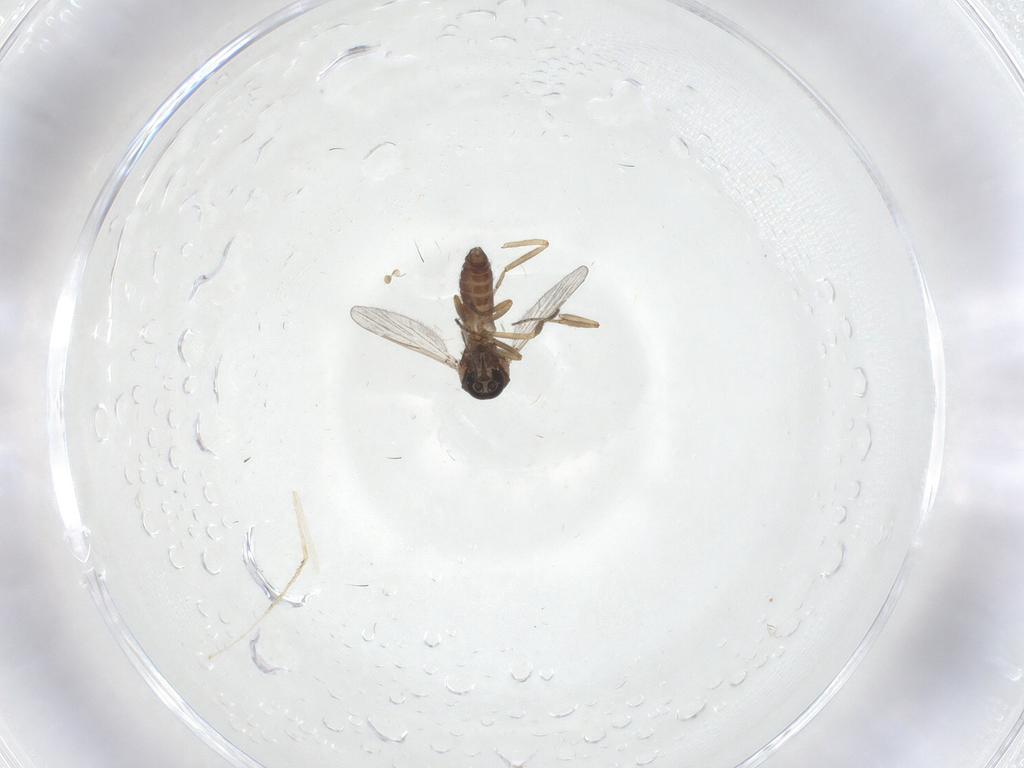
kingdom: Animalia
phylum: Arthropoda
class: Insecta
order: Diptera
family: Ceratopogonidae
